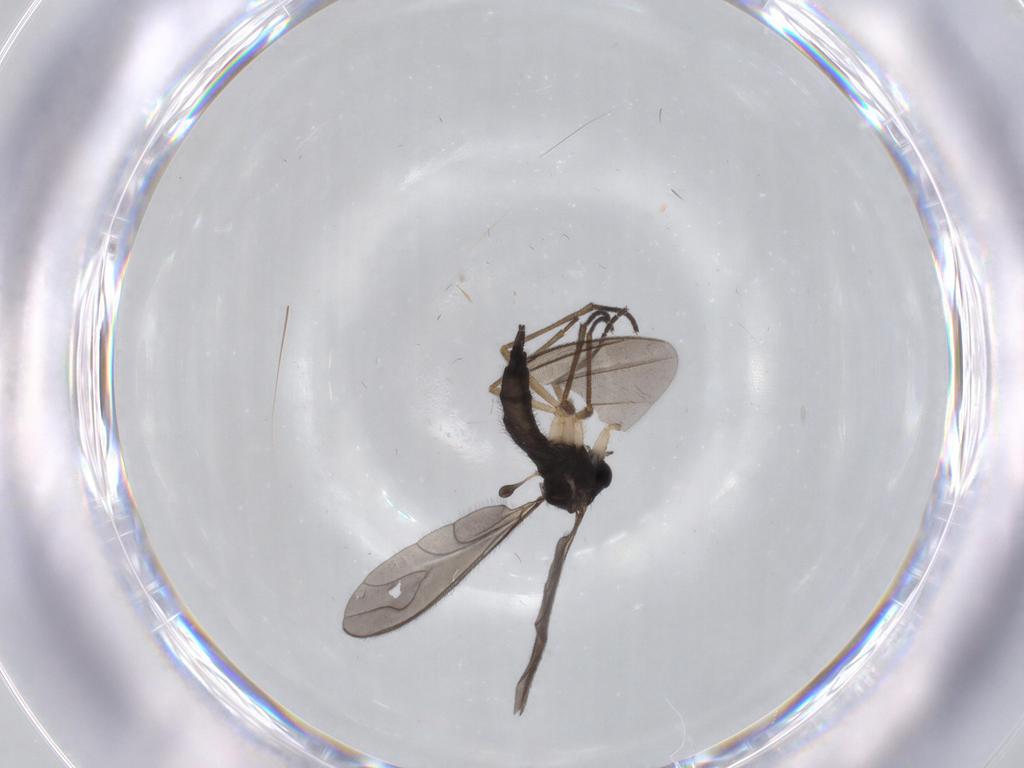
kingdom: Animalia
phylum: Arthropoda
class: Insecta
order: Diptera
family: Sciaridae
